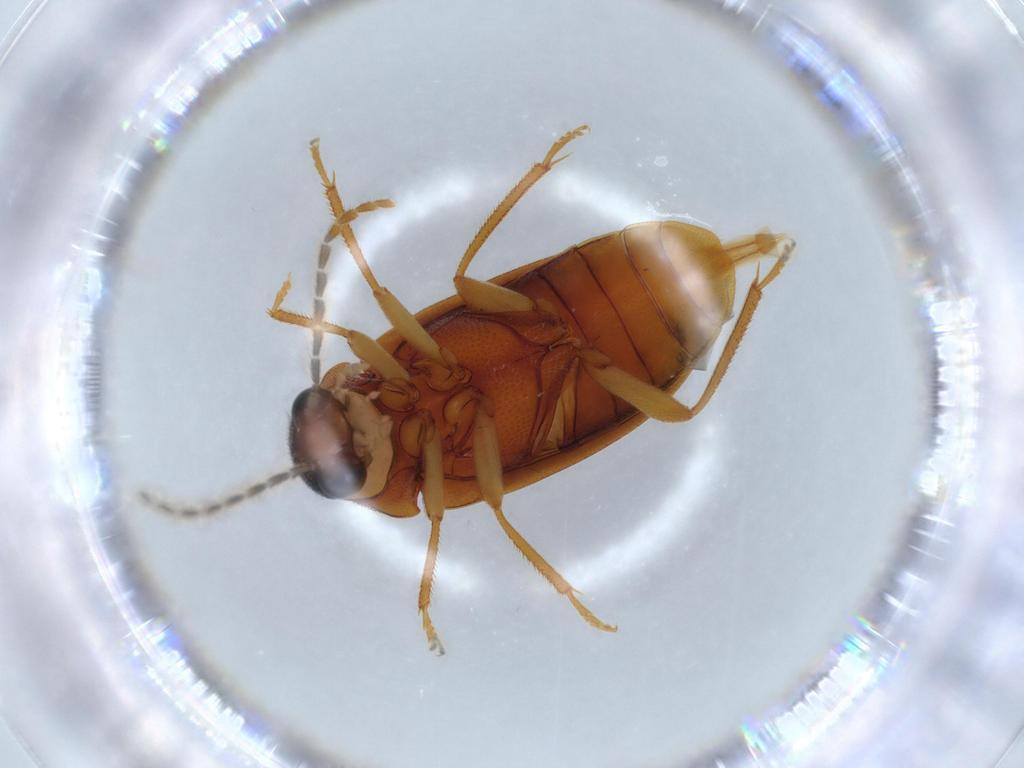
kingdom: Animalia
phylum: Arthropoda
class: Insecta
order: Coleoptera
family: Ptilodactylidae
